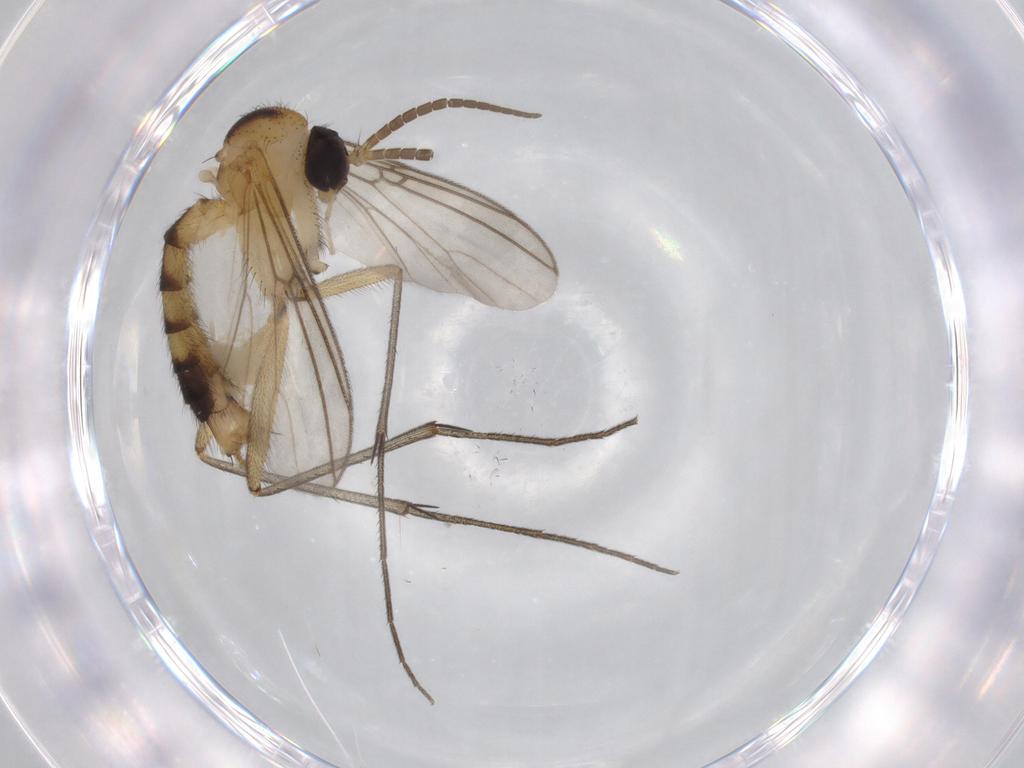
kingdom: Animalia
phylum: Arthropoda
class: Insecta
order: Diptera
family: Mycetophilidae
